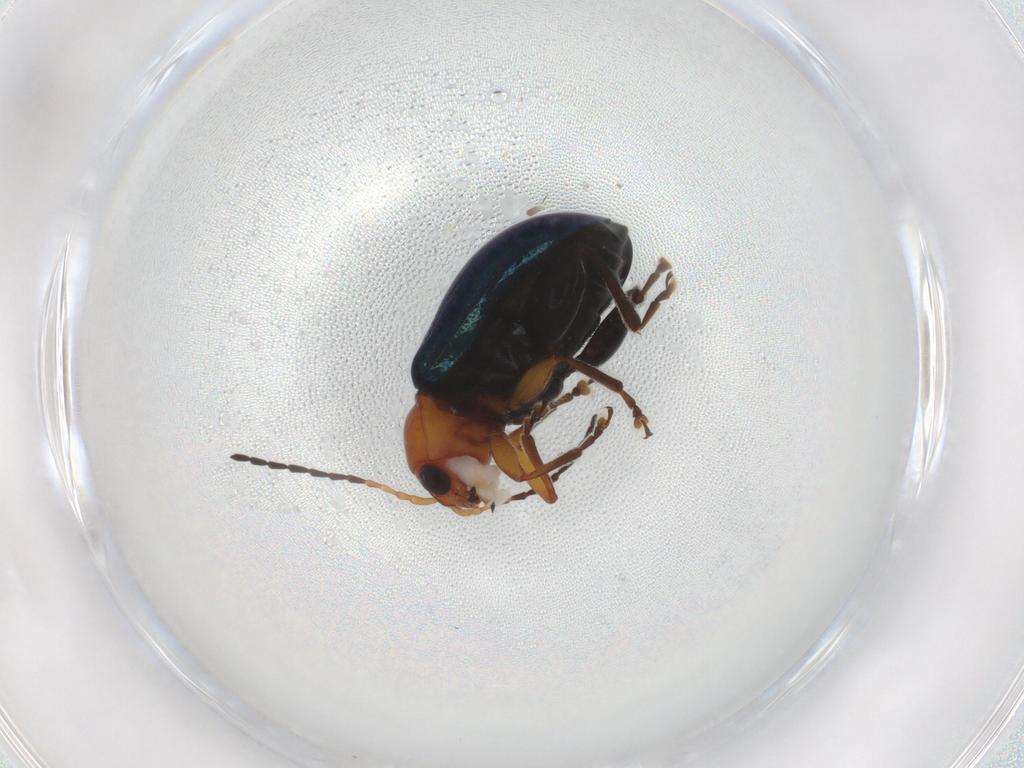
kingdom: Animalia
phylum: Arthropoda
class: Insecta
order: Coleoptera
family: Chrysomelidae
